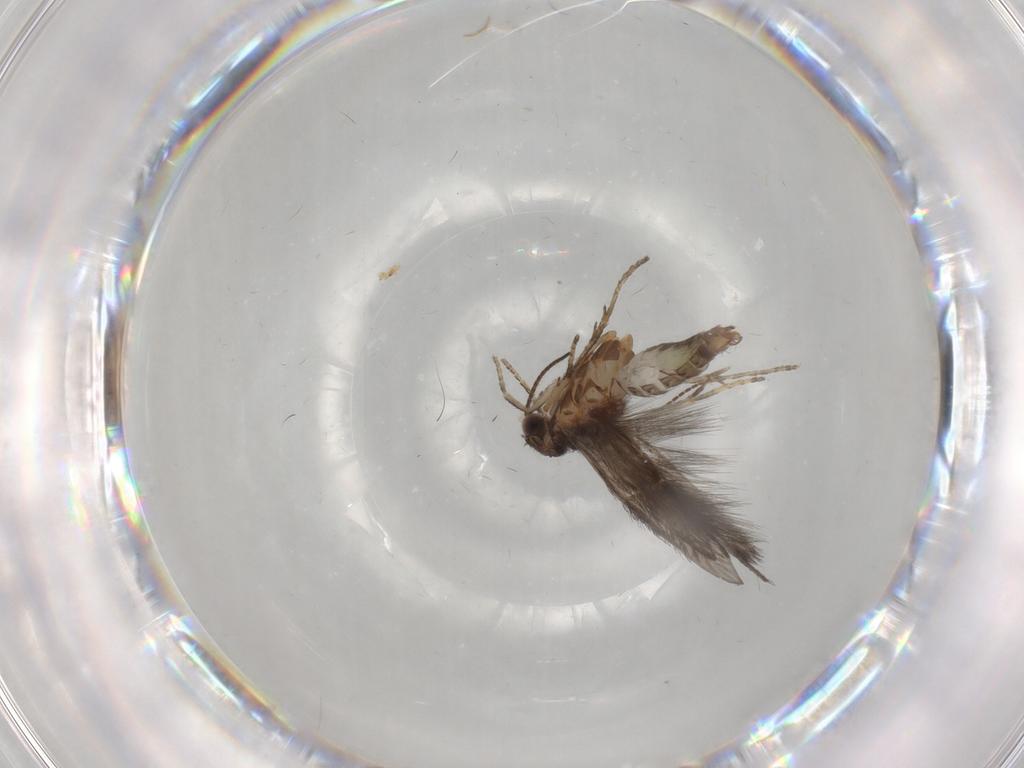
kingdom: Animalia
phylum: Arthropoda
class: Insecta
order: Trichoptera
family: Hydroptilidae
